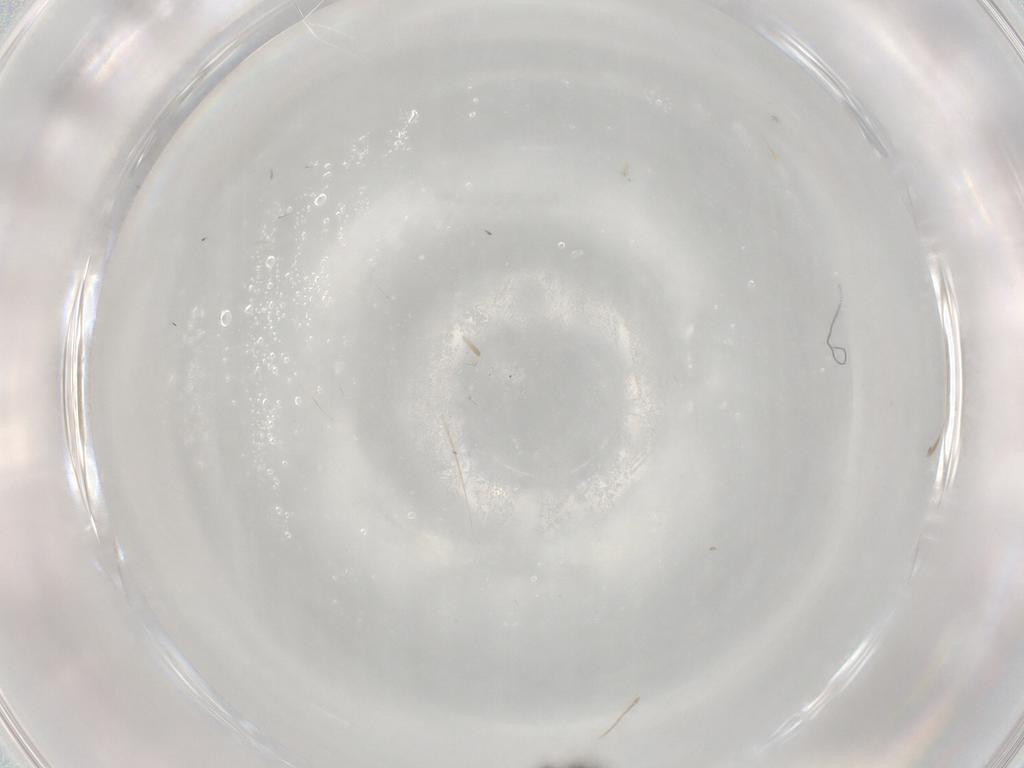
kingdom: Animalia
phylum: Arthropoda
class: Insecta
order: Thysanoptera
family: Aeolothripidae
